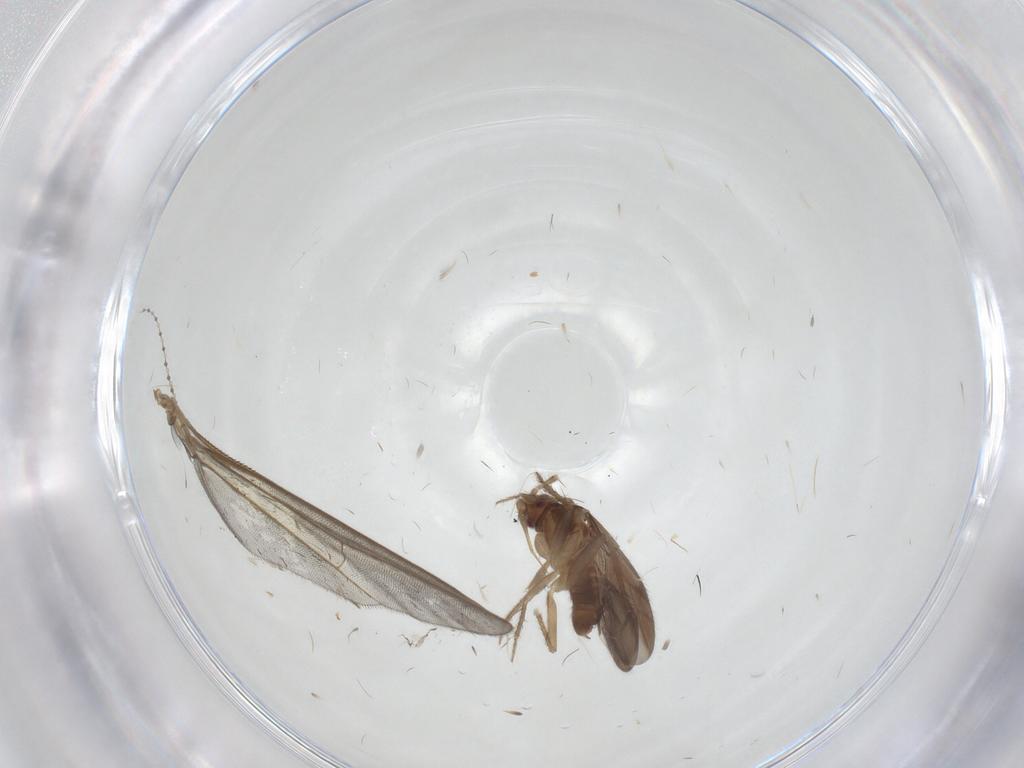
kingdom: Animalia
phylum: Arthropoda
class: Insecta
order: Hemiptera
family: Ceratocombidae
